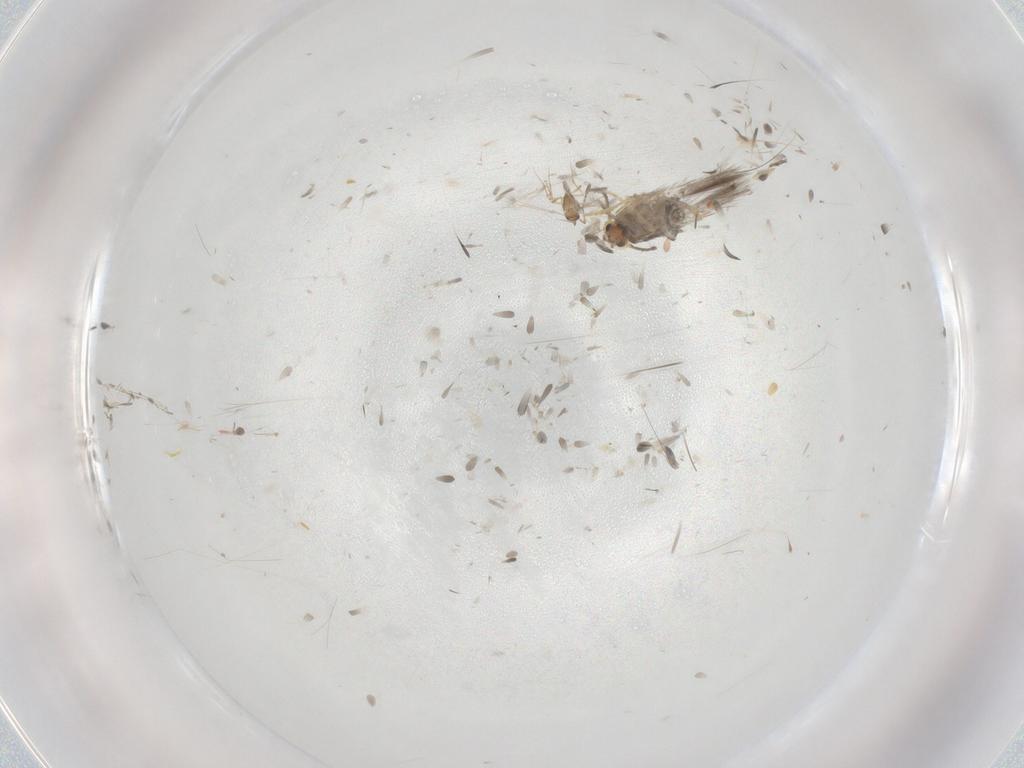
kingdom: Animalia
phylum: Arthropoda
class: Insecta
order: Lepidoptera
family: Nepticulidae
